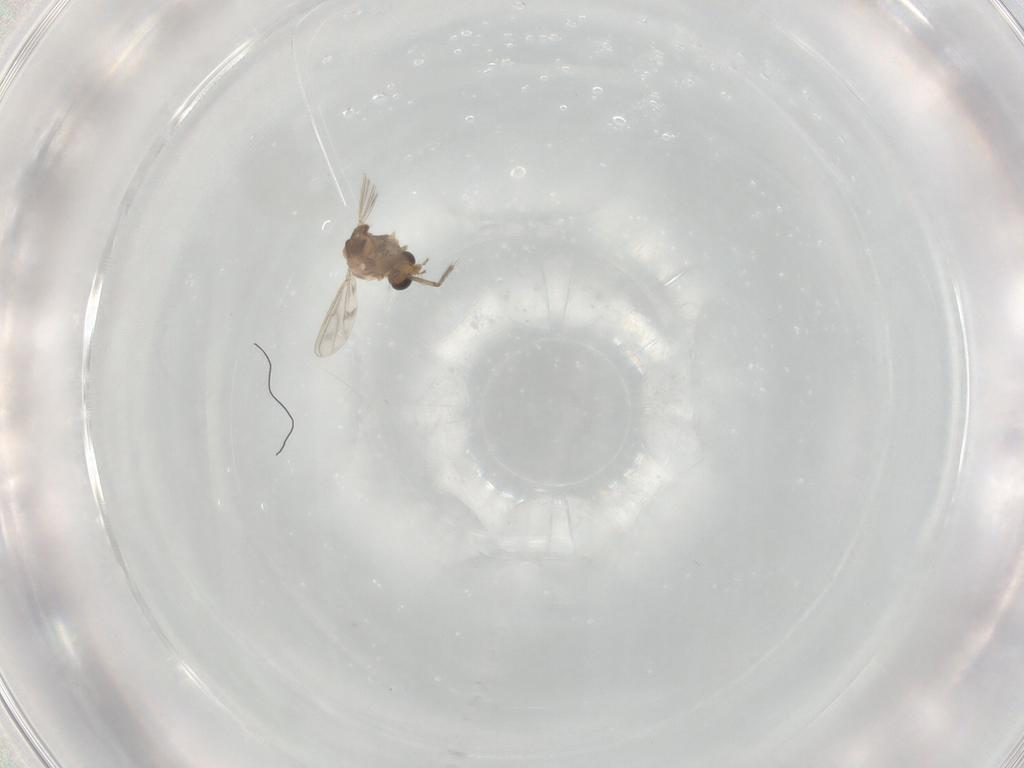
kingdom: Animalia
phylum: Arthropoda
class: Insecta
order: Diptera
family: Chironomidae
